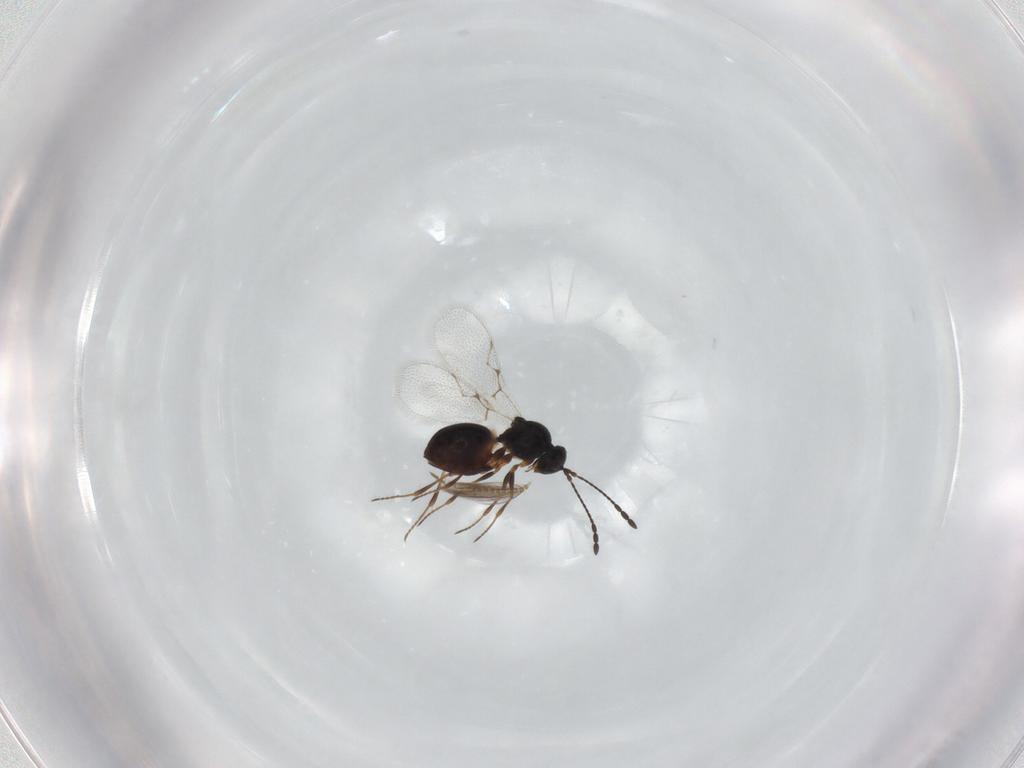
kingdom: Animalia
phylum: Arthropoda
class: Insecta
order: Hymenoptera
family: Figitidae
